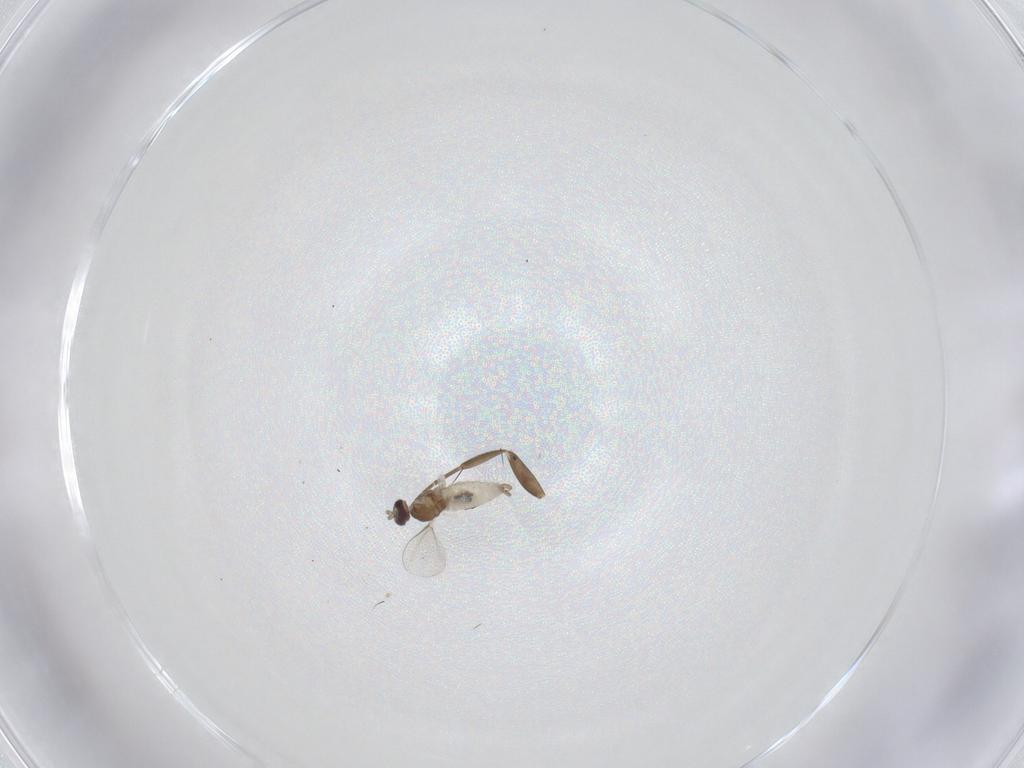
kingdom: Animalia
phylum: Arthropoda
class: Insecta
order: Diptera
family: Cecidomyiidae
